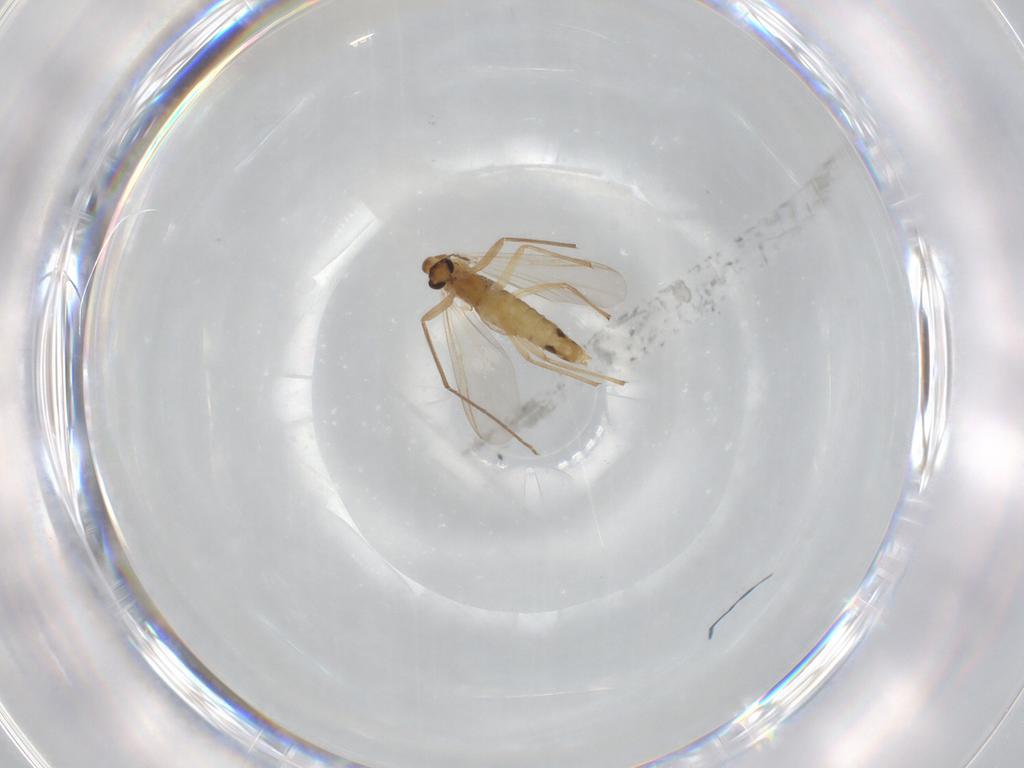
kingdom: Animalia
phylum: Arthropoda
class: Insecta
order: Diptera
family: Chironomidae
